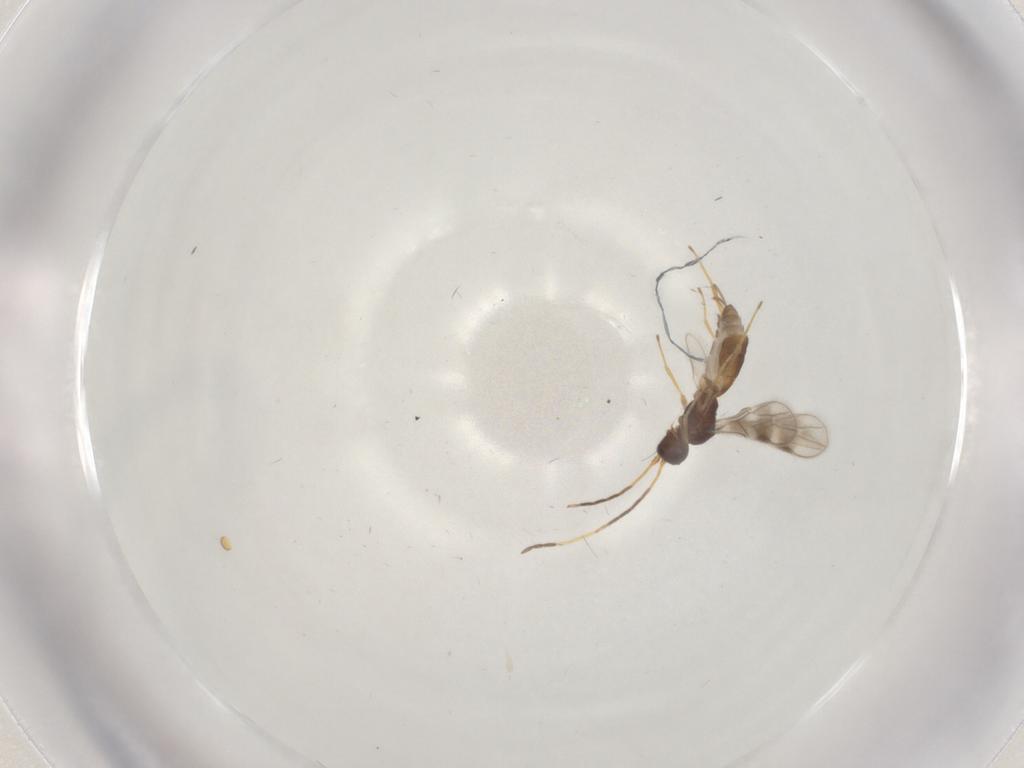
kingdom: Animalia
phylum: Arthropoda
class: Insecta
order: Hymenoptera
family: Braconidae
